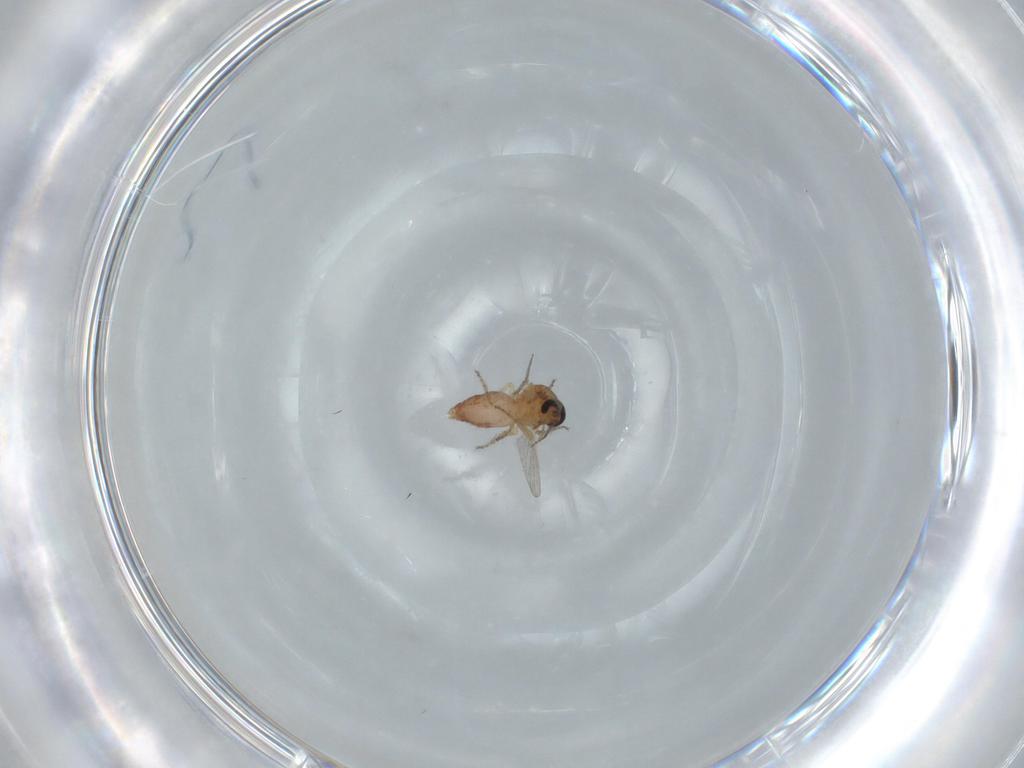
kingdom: Animalia
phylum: Arthropoda
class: Insecta
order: Diptera
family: Ceratopogonidae
